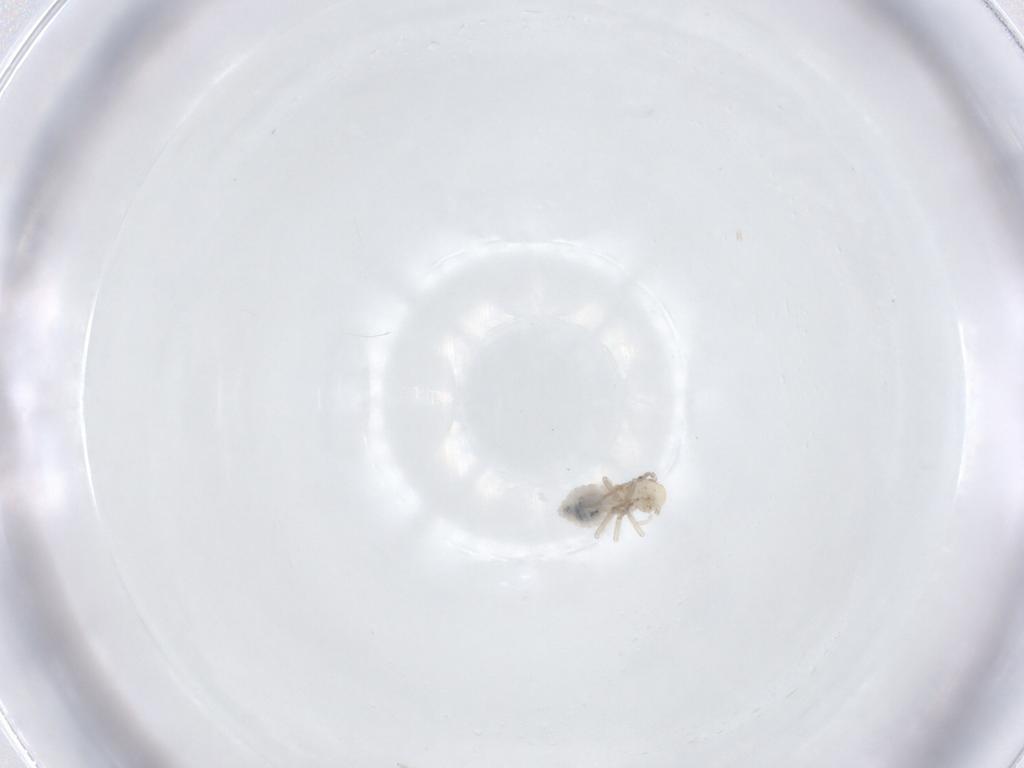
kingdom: Animalia
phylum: Arthropoda
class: Insecta
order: Psocodea
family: Caeciliusidae
